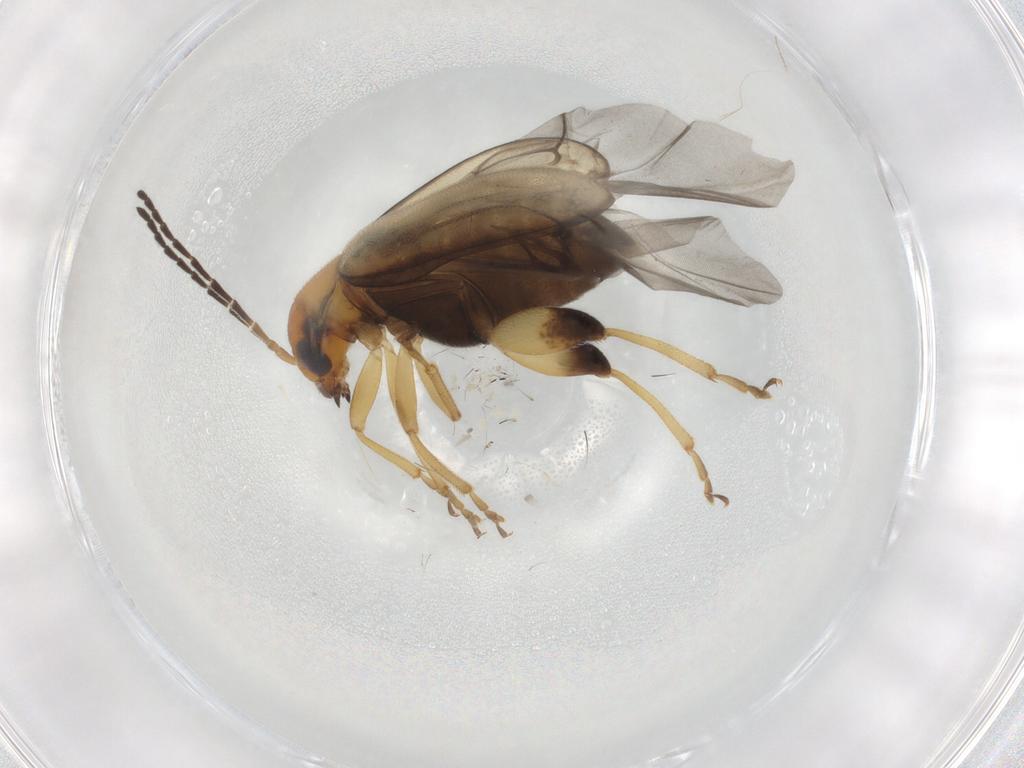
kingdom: Animalia
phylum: Arthropoda
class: Insecta
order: Coleoptera
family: Chrysomelidae
